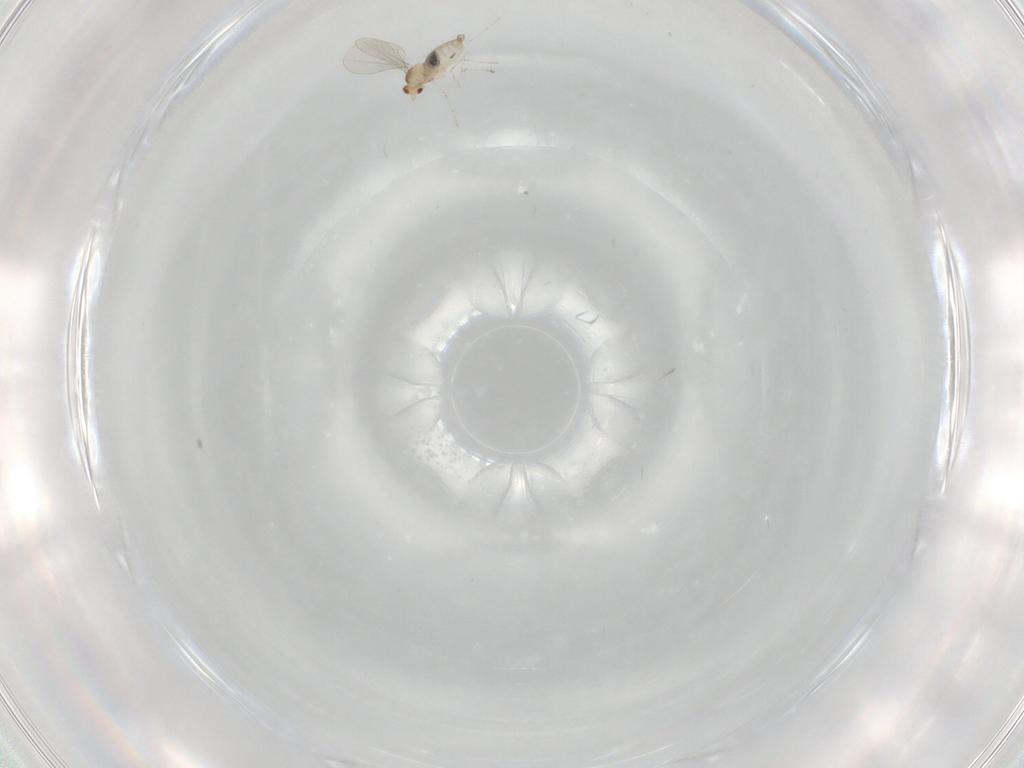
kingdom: Animalia
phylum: Arthropoda
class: Insecta
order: Diptera
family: Cecidomyiidae
